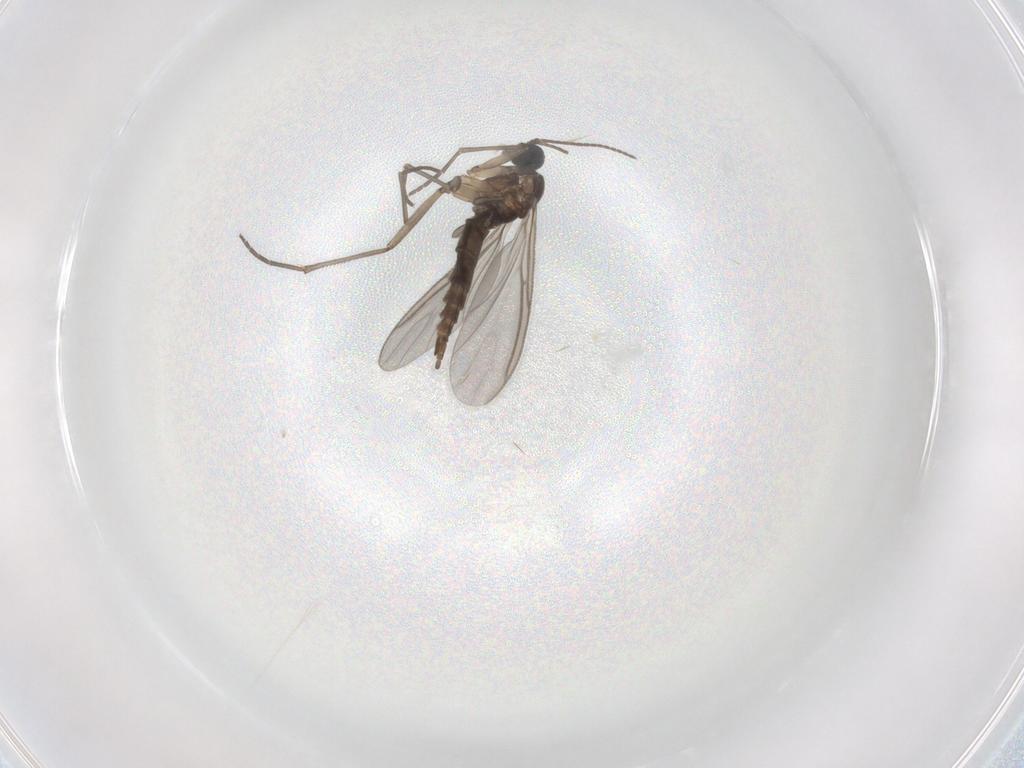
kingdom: Animalia
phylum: Arthropoda
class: Insecta
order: Diptera
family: Sciaridae
